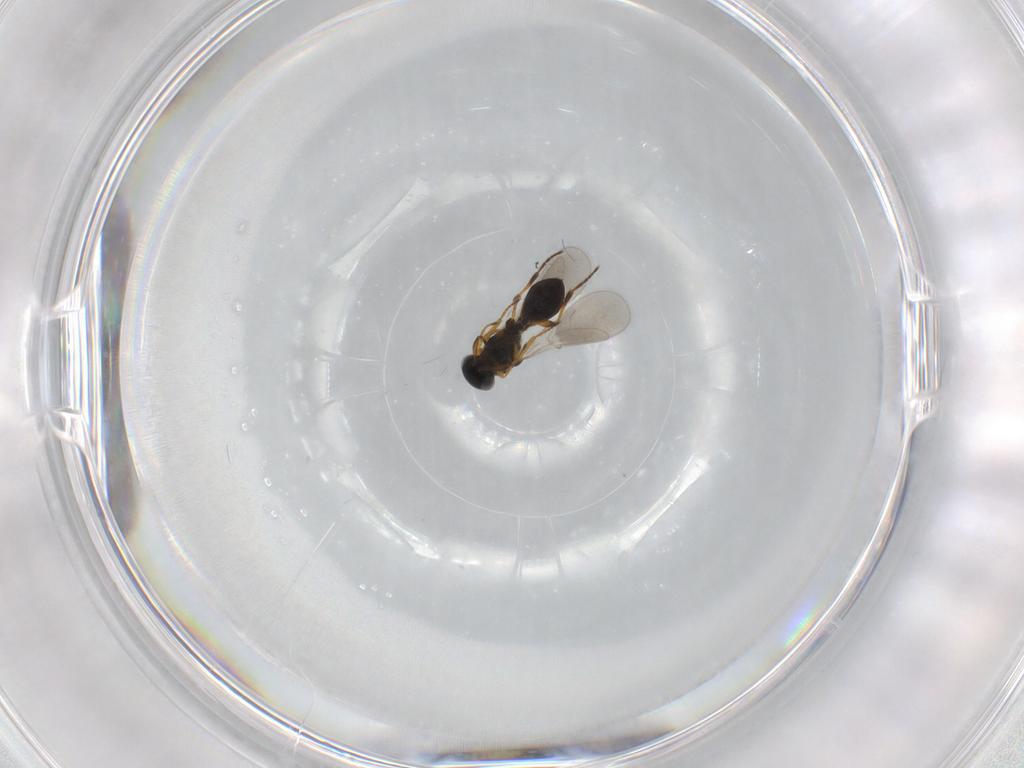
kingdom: Animalia
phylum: Arthropoda
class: Insecta
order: Hymenoptera
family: Platygastridae
